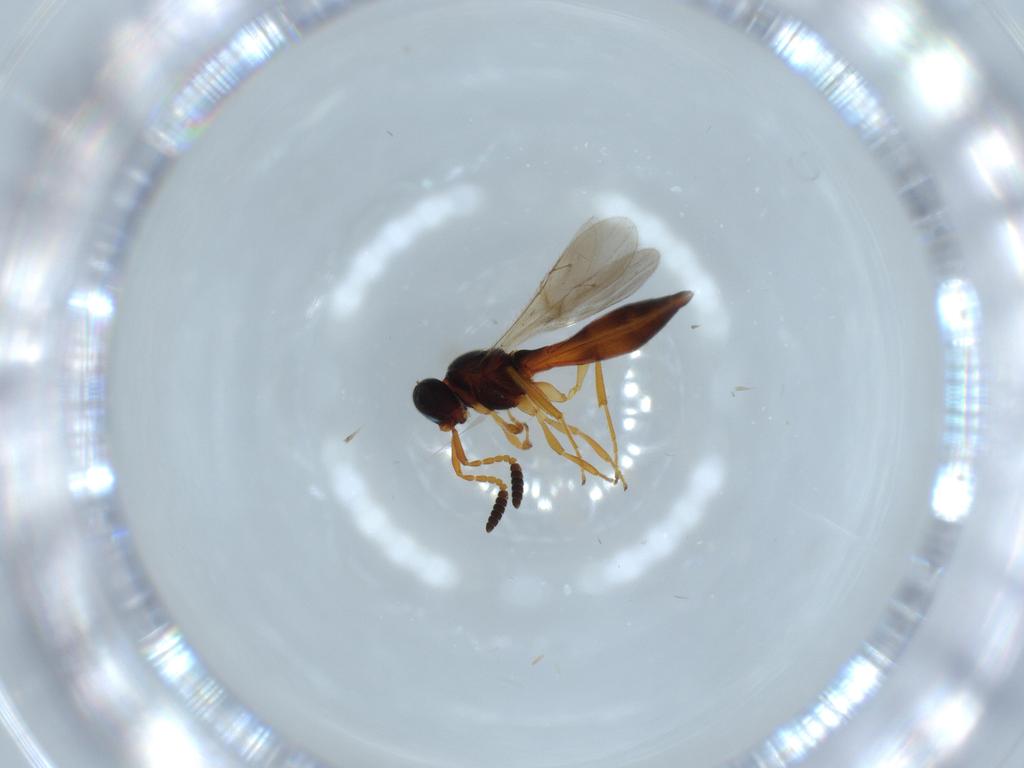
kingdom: Animalia
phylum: Arthropoda
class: Insecta
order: Hymenoptera
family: Scelionidae
